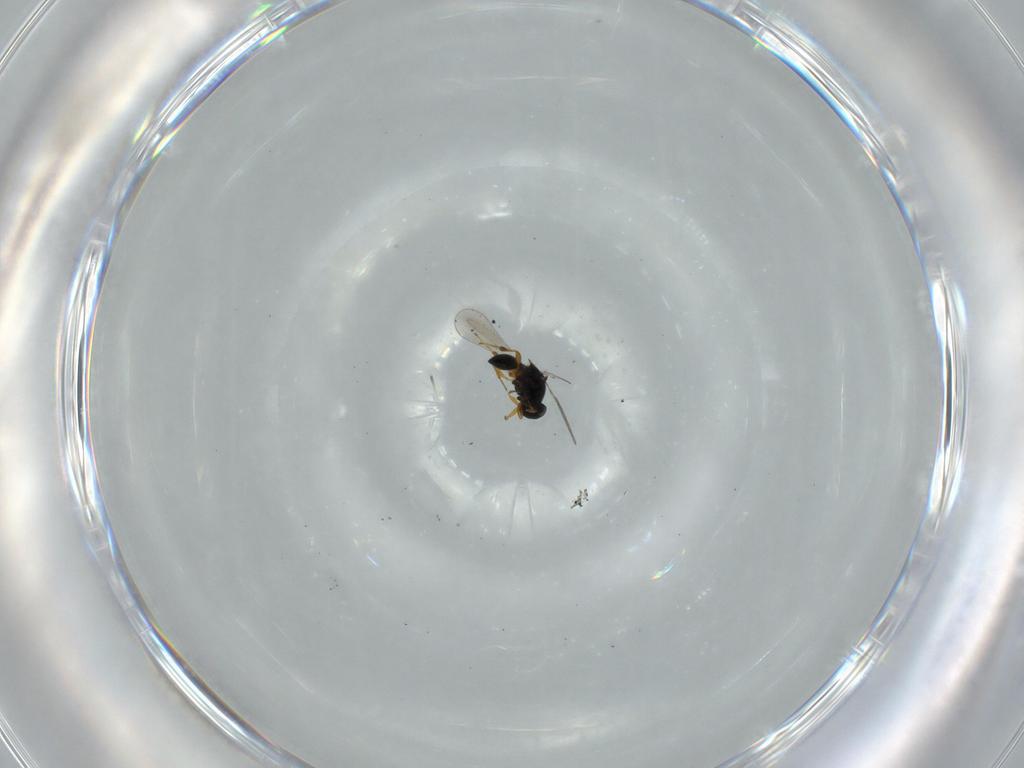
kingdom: Animalia
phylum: Arthropoda
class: Insecta
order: Hymenoptera
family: Platygastridae
